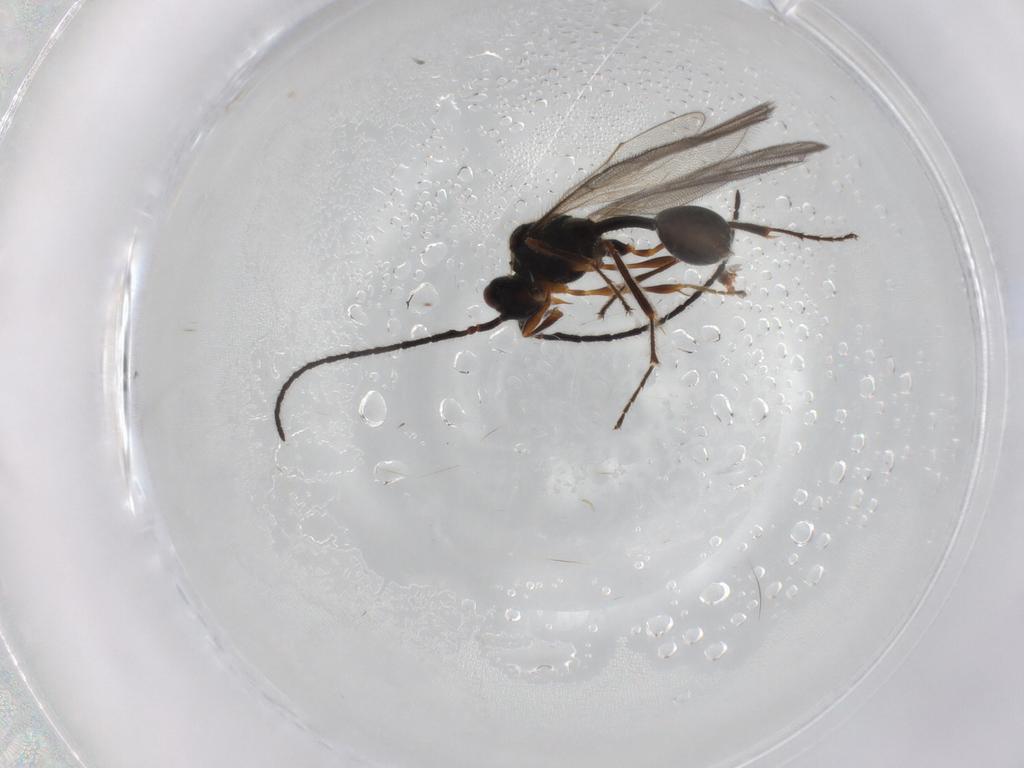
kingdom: Animalia
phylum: Arthropoda
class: Insecta
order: Hymenoptera
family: Diapriidae
